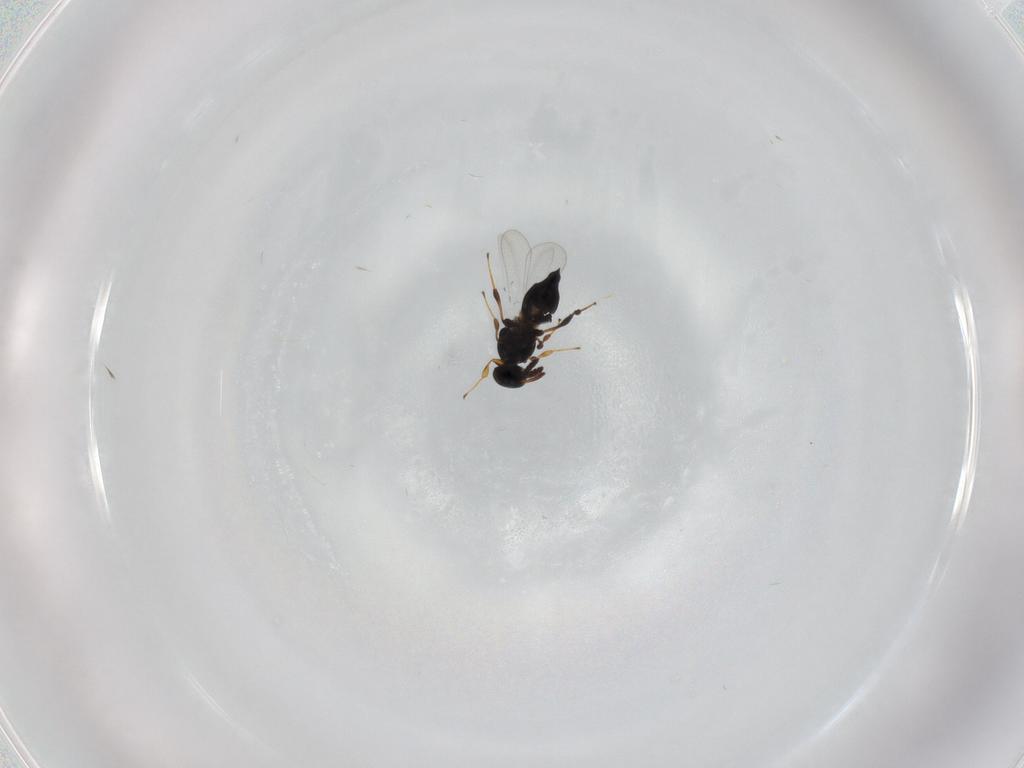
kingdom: Animalia
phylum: Arthropoda
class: Insecta
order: Hymenoptera
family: Platygastridae
